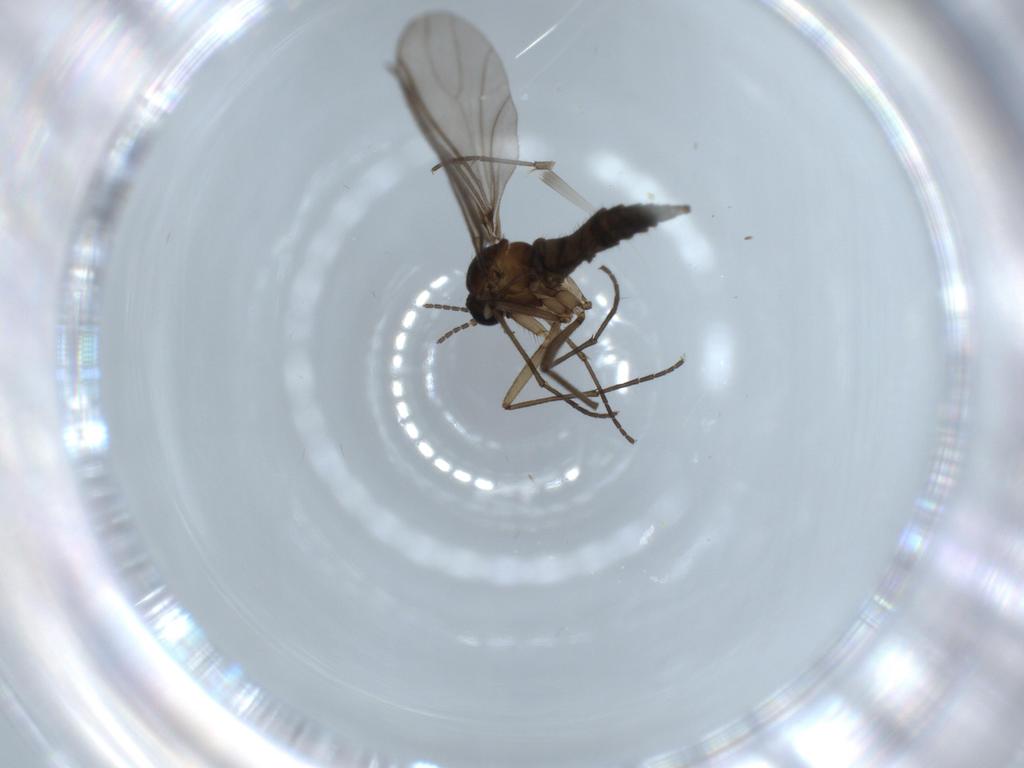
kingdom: Animalia
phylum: Arthropoda
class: Insecta
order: Diptera
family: Sciaridae
